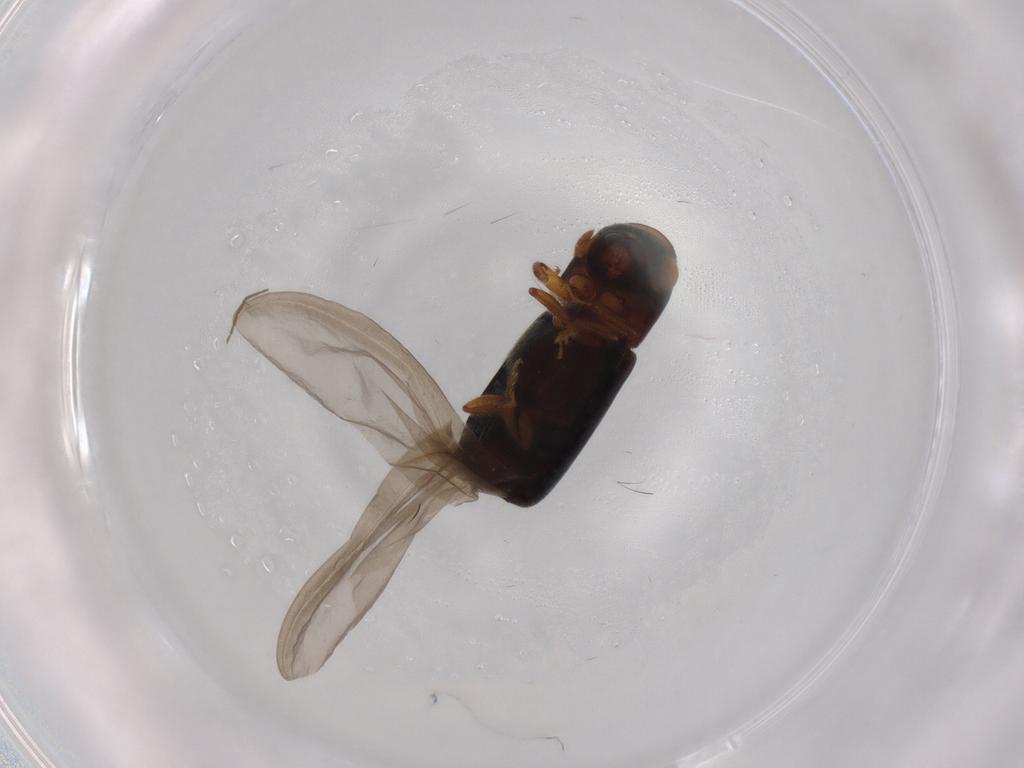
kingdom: Animalia
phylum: Arthropoda
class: Insecta
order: Coleoptera
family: Curculionidae
